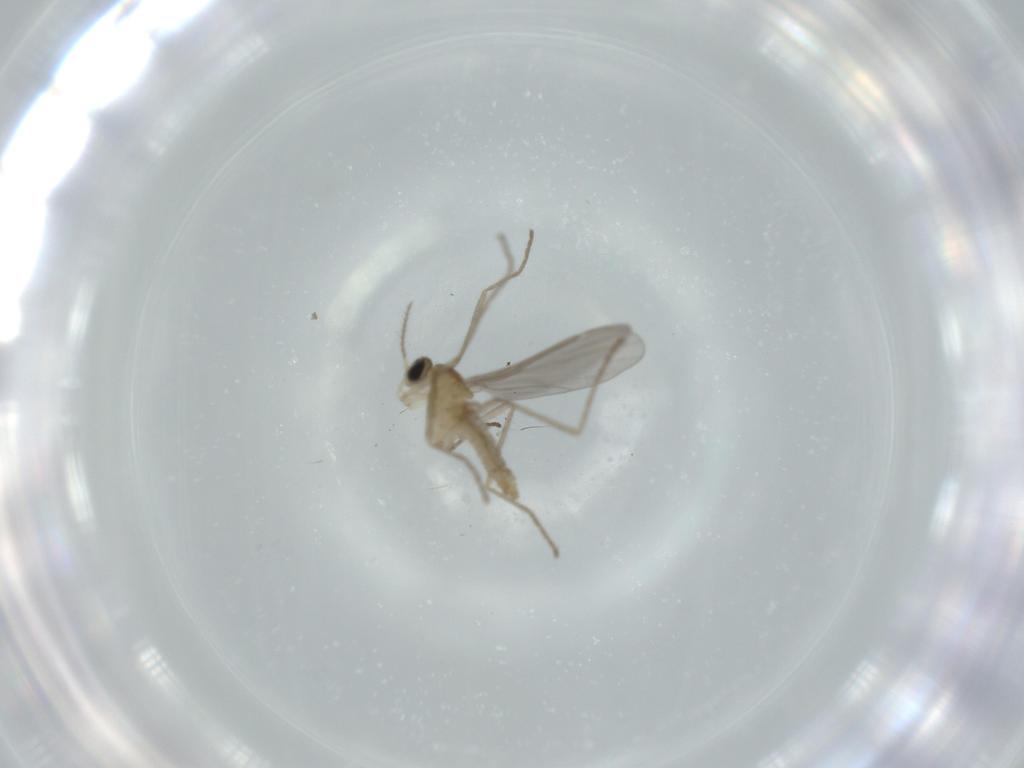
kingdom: Animalia
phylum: Arthropoda
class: Insecta
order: Diptera
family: Cecidomyiidae
